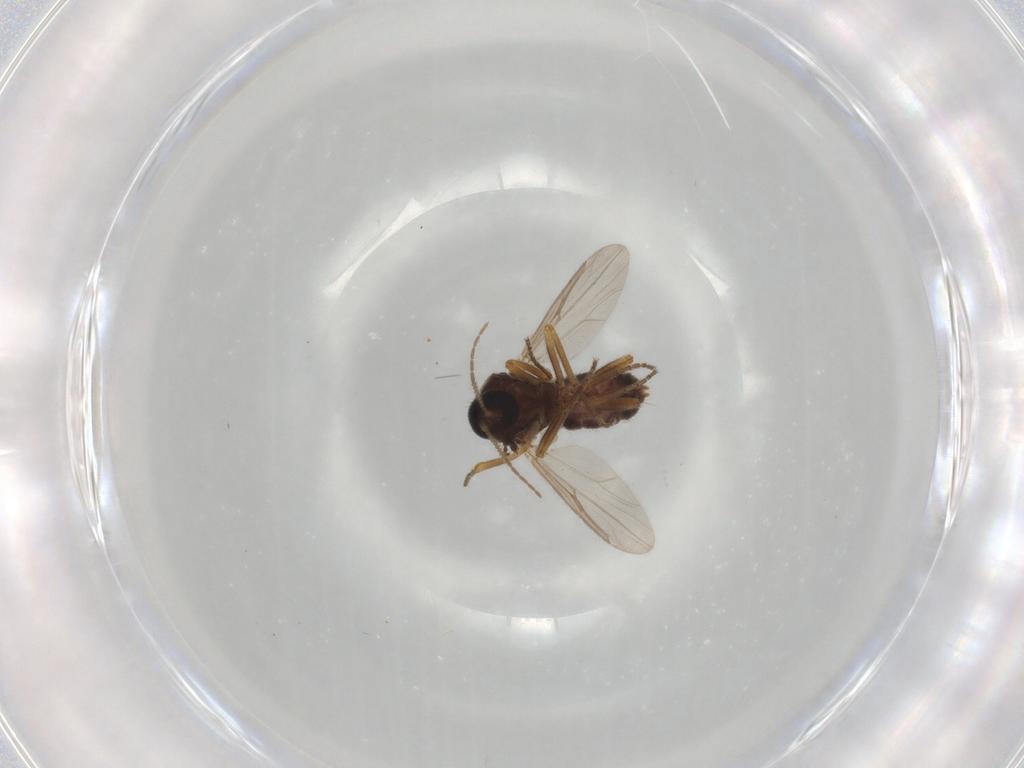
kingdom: Animalia
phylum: Arthropoda
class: Insecta
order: Diptera
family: Ceratopogonidae
